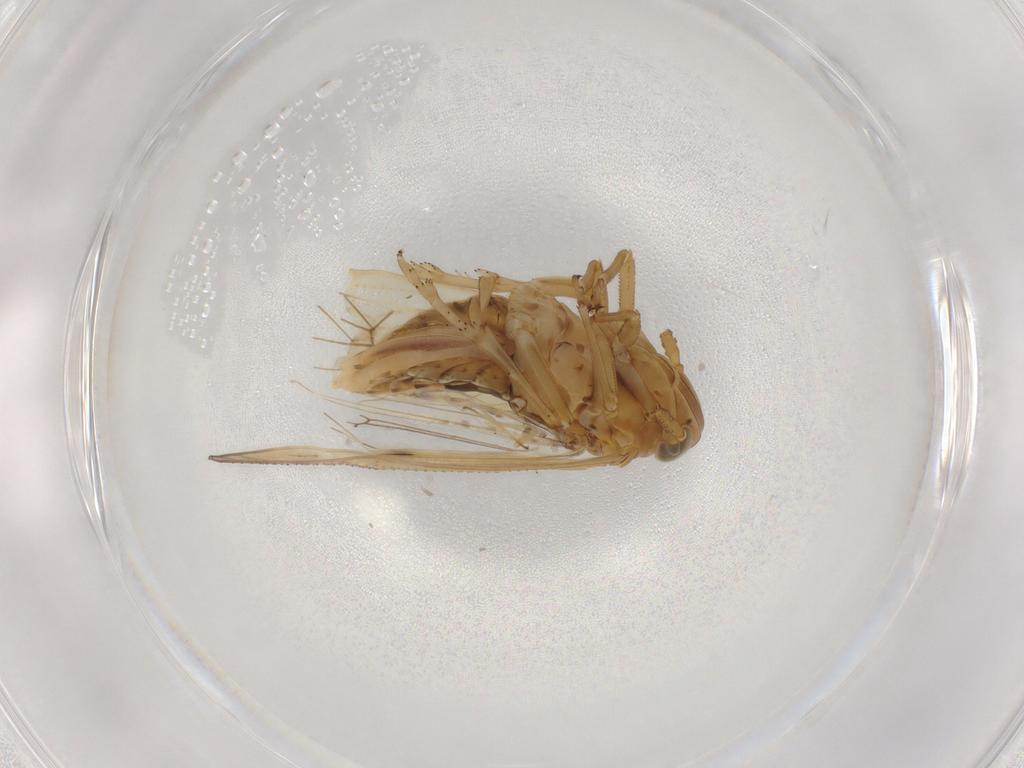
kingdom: Animalia
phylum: Arthropoda
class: Insecta
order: Hemiptera
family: Delphacidae
